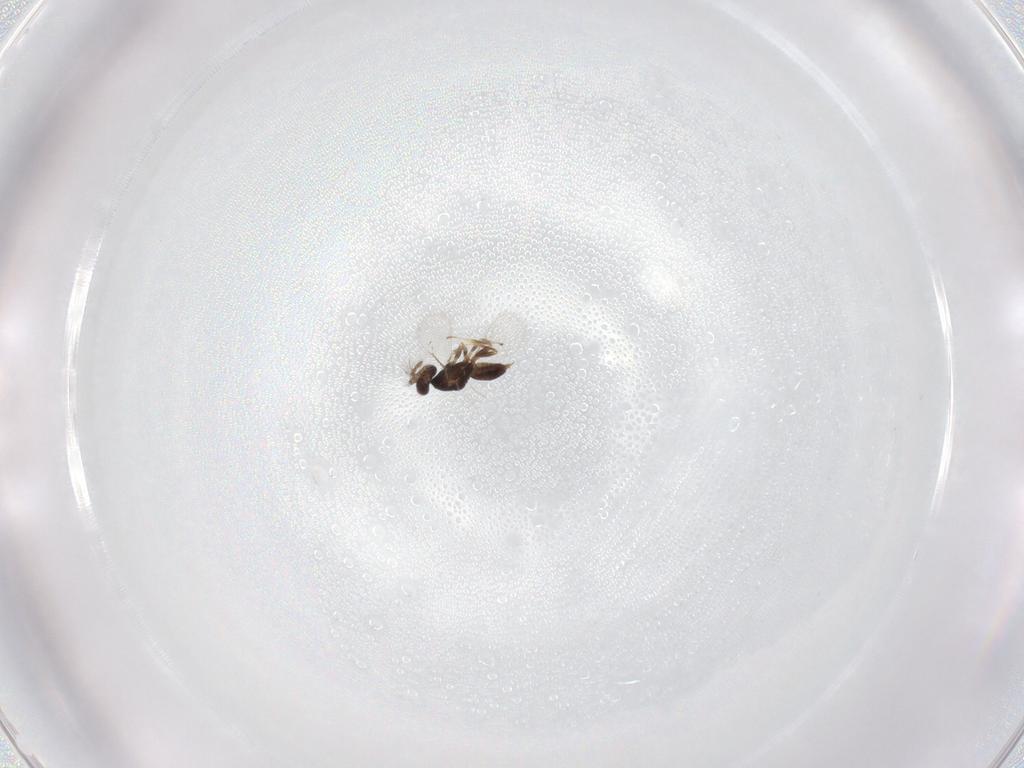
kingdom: Animalia
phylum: Arthropoda
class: Insecta
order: Hymenoptera
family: Eulophidae
